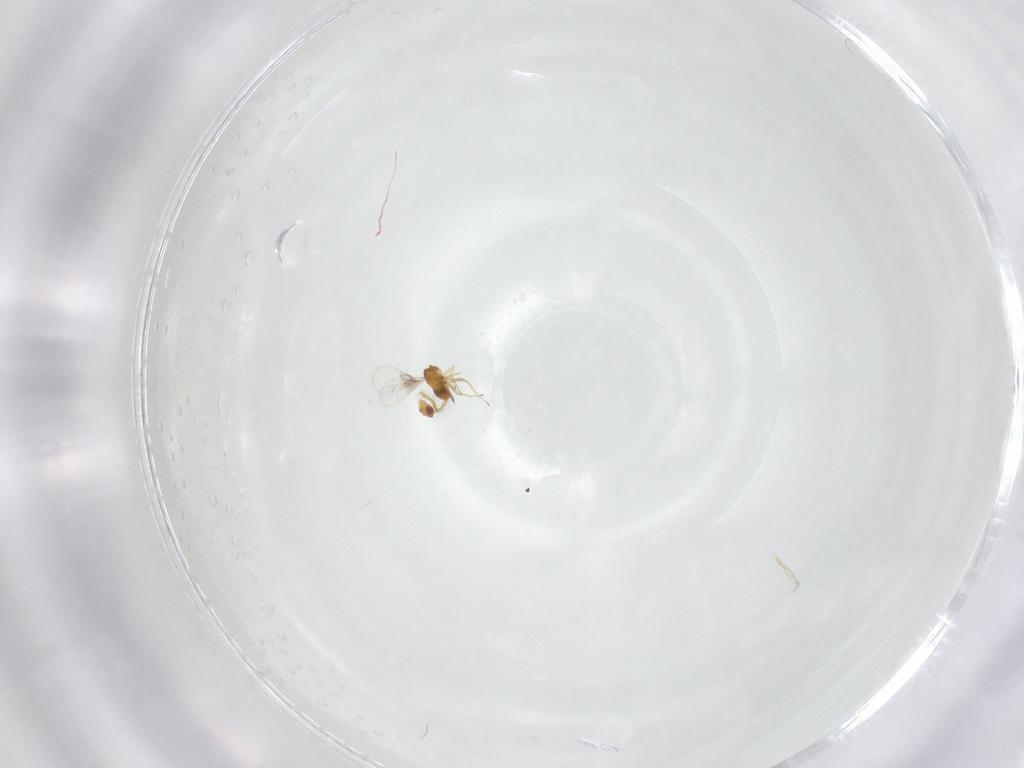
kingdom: Animalia
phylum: Arthropoda
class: Insecta
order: Hymenoptera
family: Trichogrammatidae
